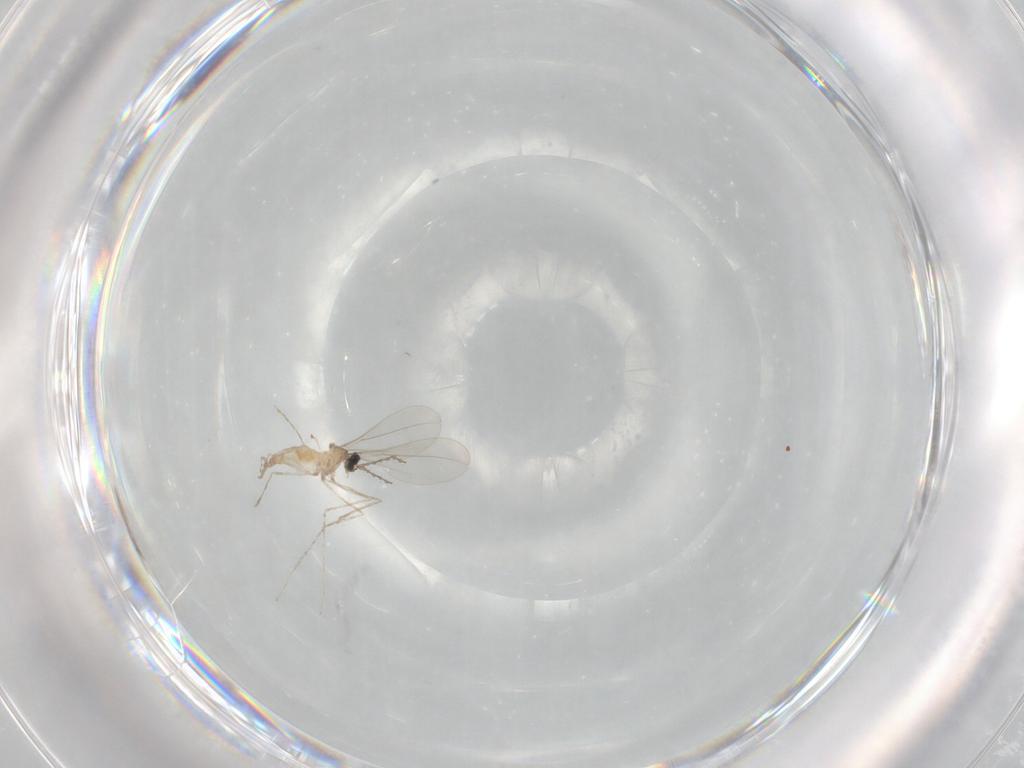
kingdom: Animalia
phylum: Arthropoda
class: Insecta
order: Diptera
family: Cecidomyiidae
